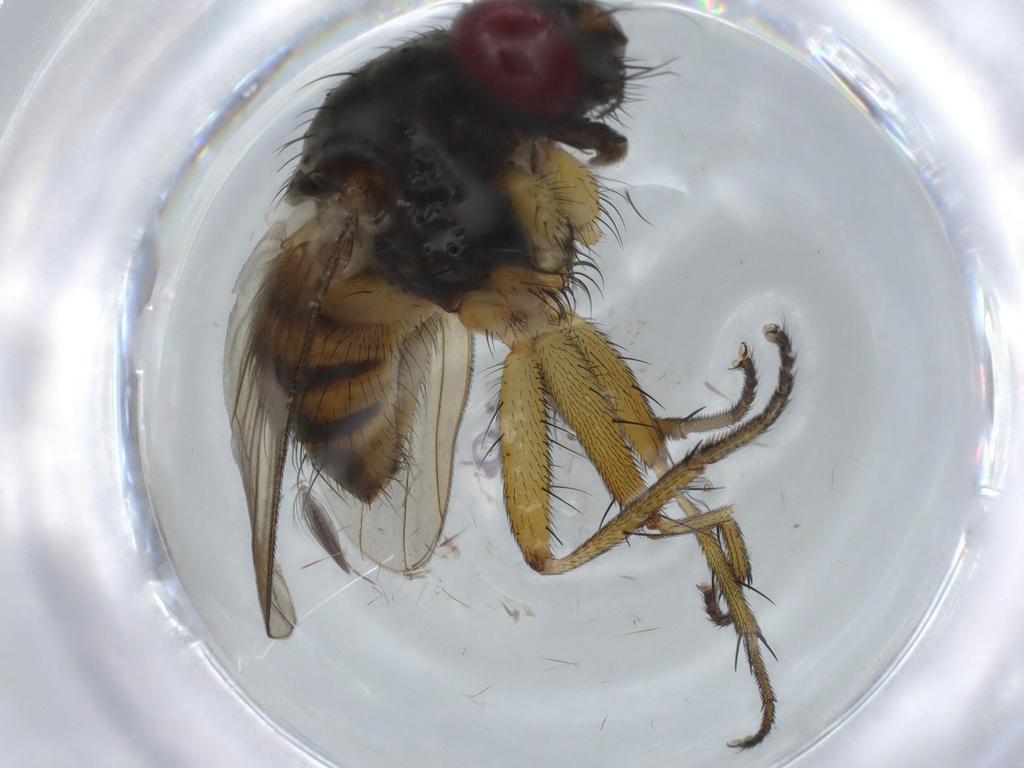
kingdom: Animalia
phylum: Arthropoda
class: Insecta
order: Diptera
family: Muscidae
